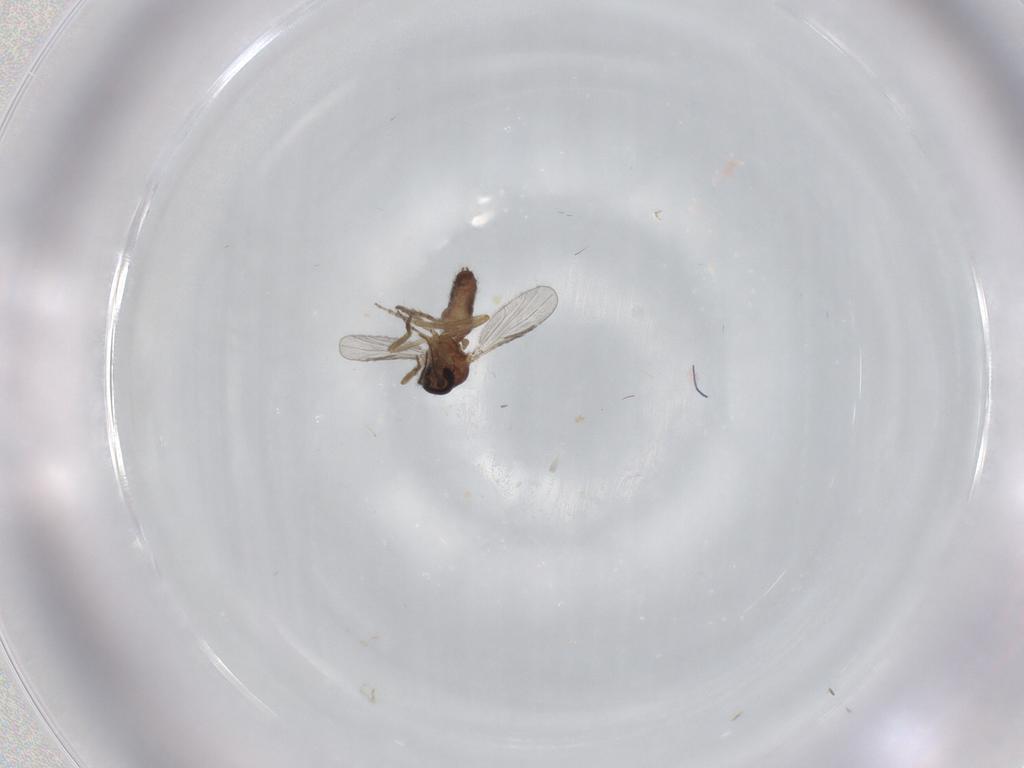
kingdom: Animalia
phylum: Arthropoda
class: Insecta
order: Diptera
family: Ceratopogonidae
